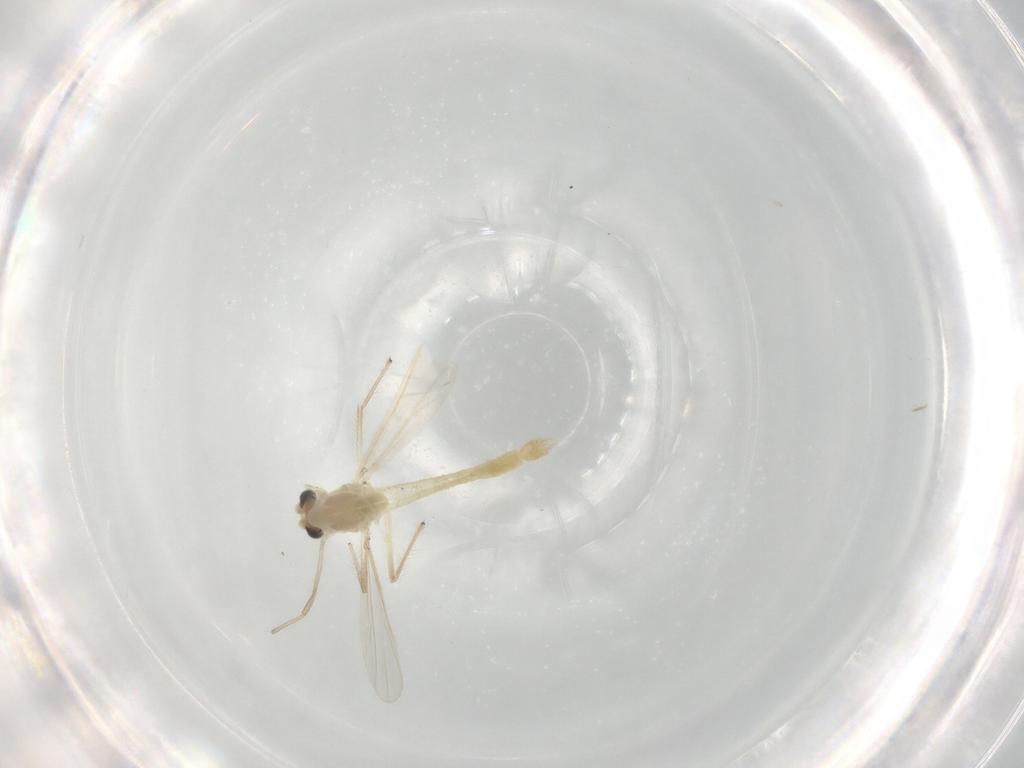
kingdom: Animalia
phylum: Arthropoda
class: Insecta
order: Diptera
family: Chironomidae
